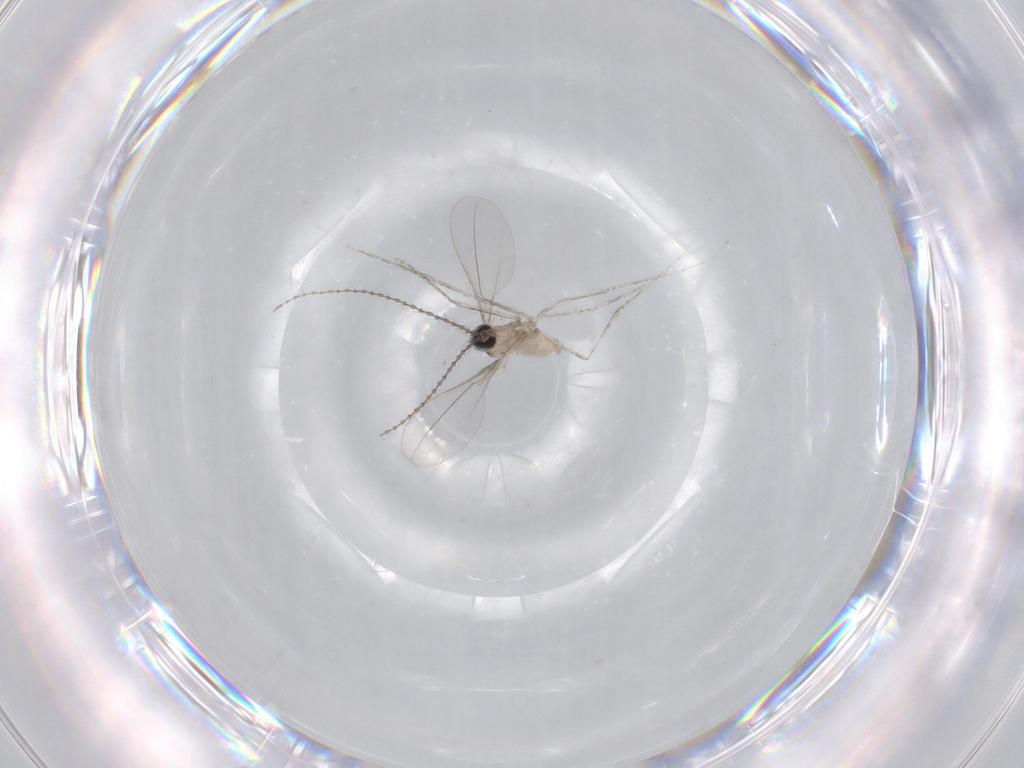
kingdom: Animalia
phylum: Arthropoda
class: Insecta
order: Diptera
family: Cecidomyiidae
